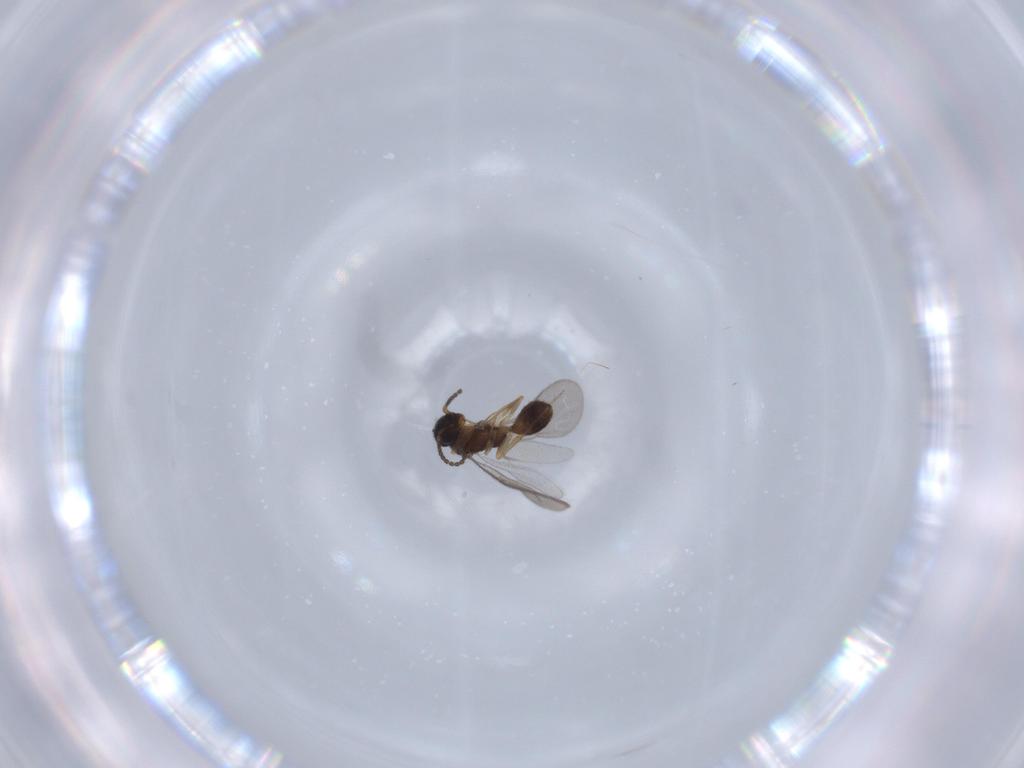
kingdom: Animalia
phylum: Arthropoda
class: Insecta
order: Hymenoptera
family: Bethylidae
